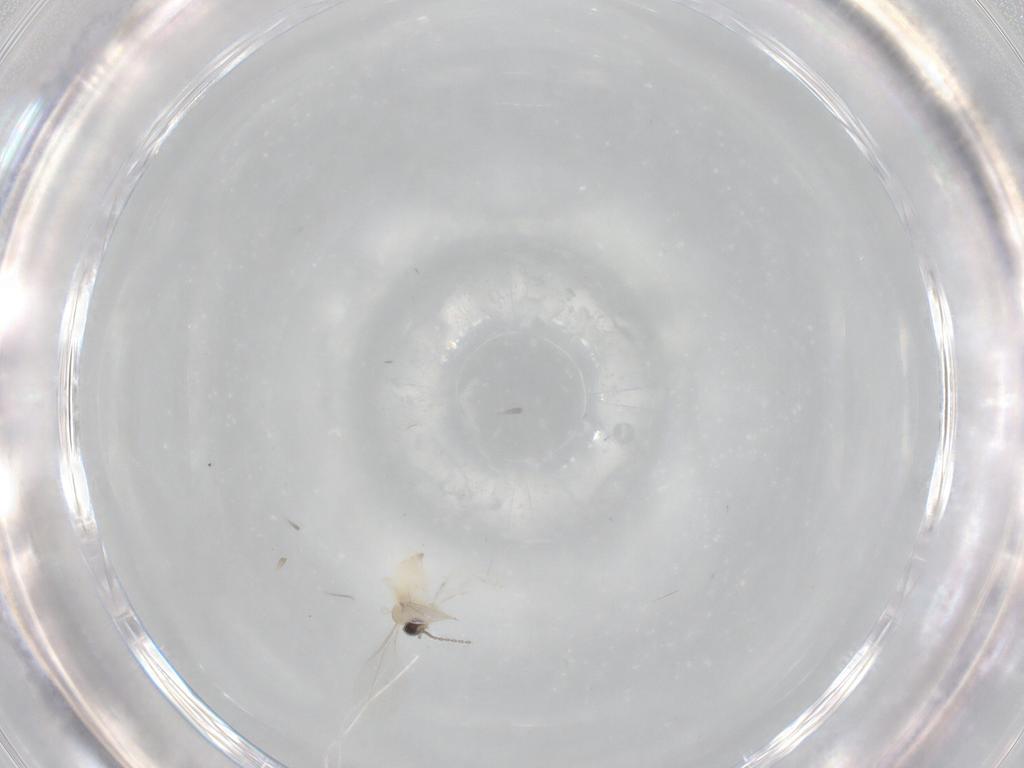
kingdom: Animalia
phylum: Arthropoda
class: Insecta
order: Diptera
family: Cecidomyiidae
